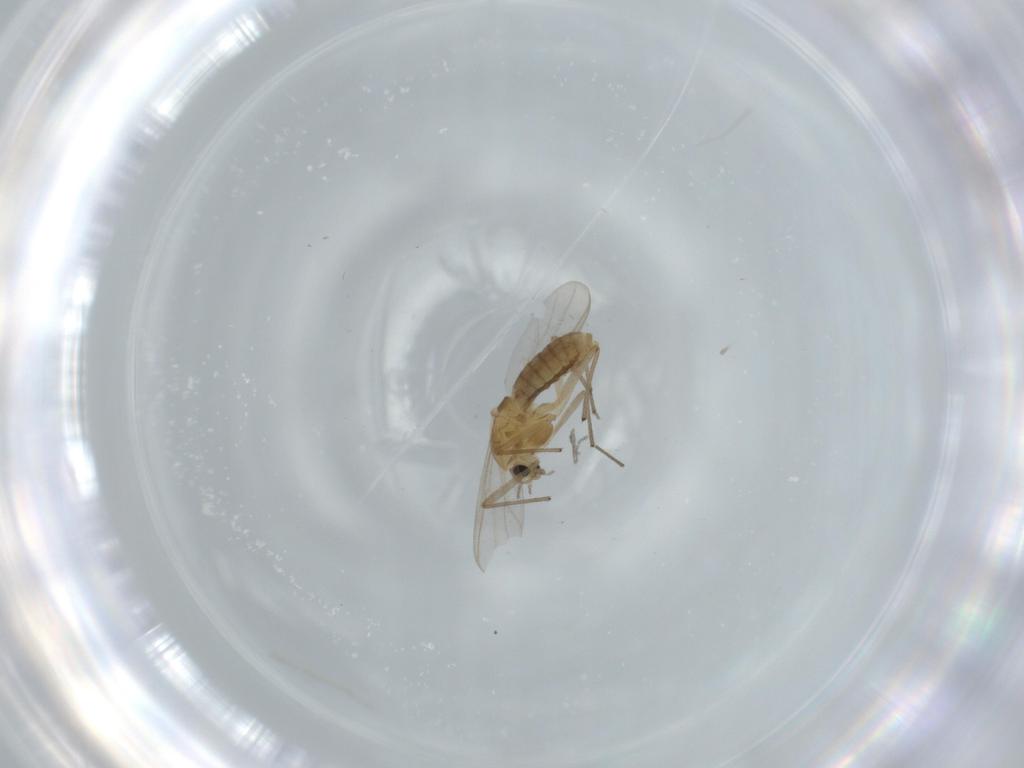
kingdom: Animalia
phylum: Arthropoda
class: Insecta
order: Diptera
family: Chironomidae
